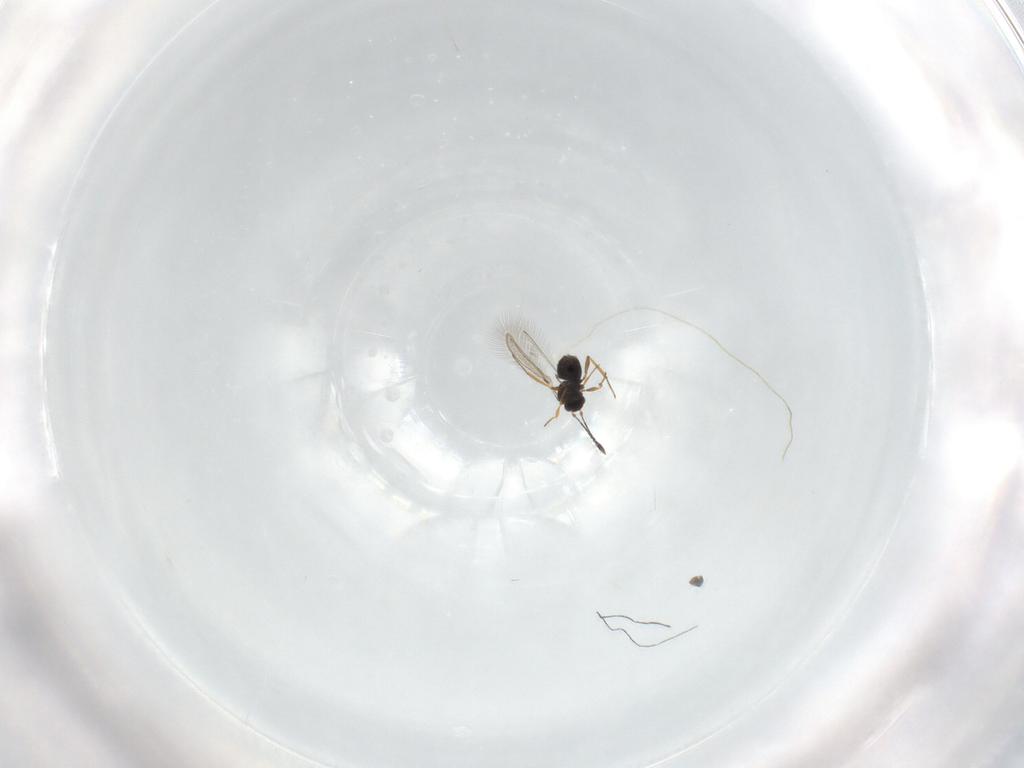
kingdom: Animalia
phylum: Arthropoda
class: Insecta
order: Hymenoptera
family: Mymaridae
